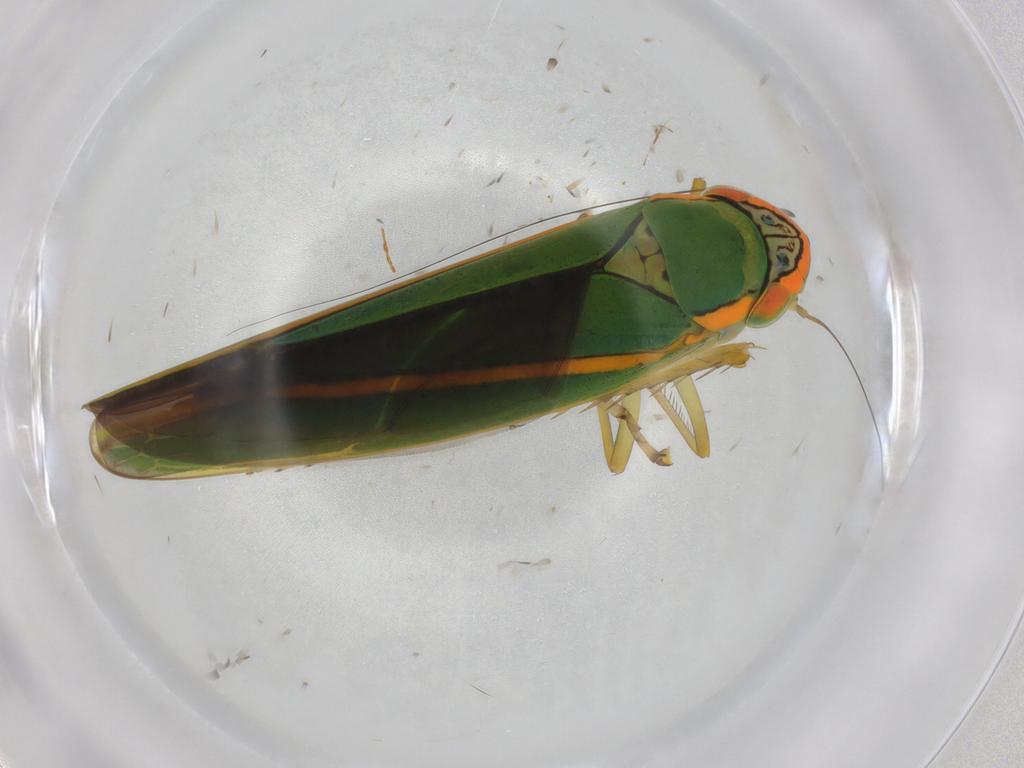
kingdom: Animalia
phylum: Arthropoda
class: Insecta
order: Hemiptera
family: Cicadellidae
